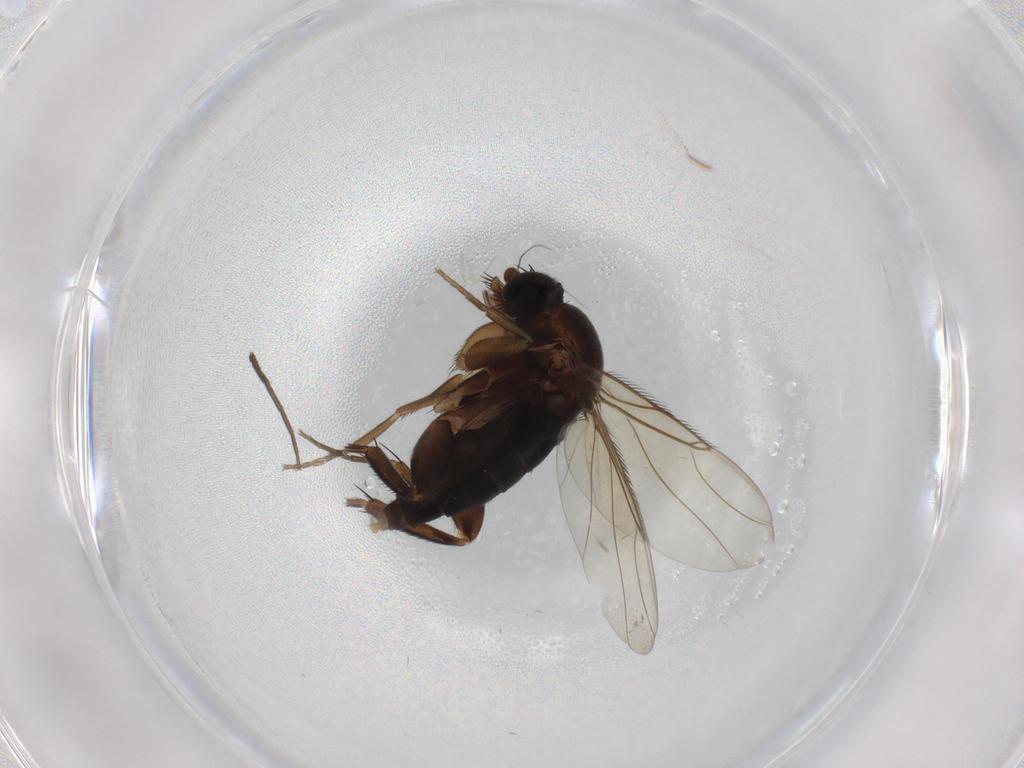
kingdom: Animalia
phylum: Arthropoda
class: Insecta
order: Diptera
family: Phoridae
